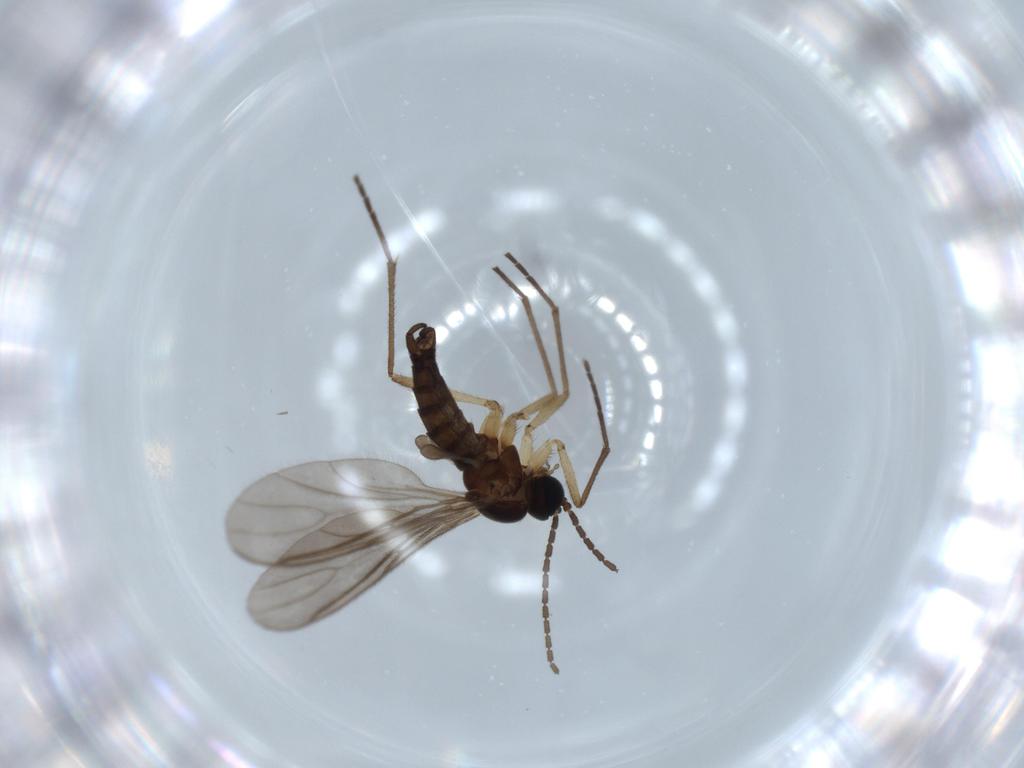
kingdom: Animalia
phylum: Arthropoda
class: Insecta
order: Diptera
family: Sciaridae
